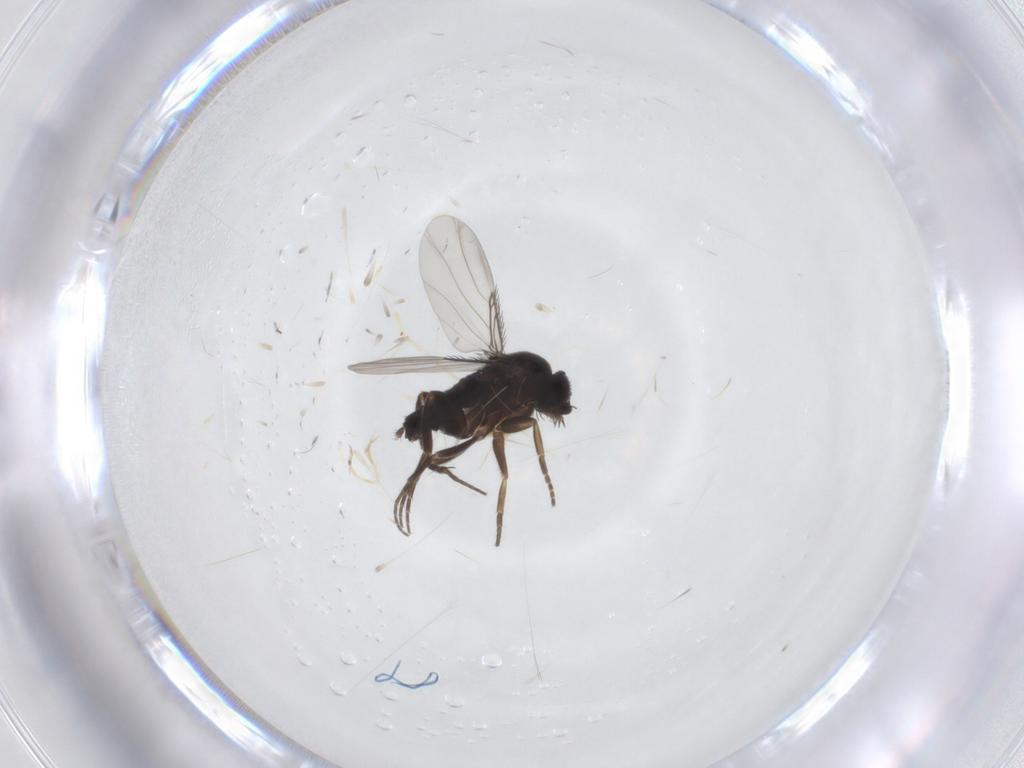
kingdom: Animalia
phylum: Arthropoda
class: Insecta
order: Diptera
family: Phoridae
